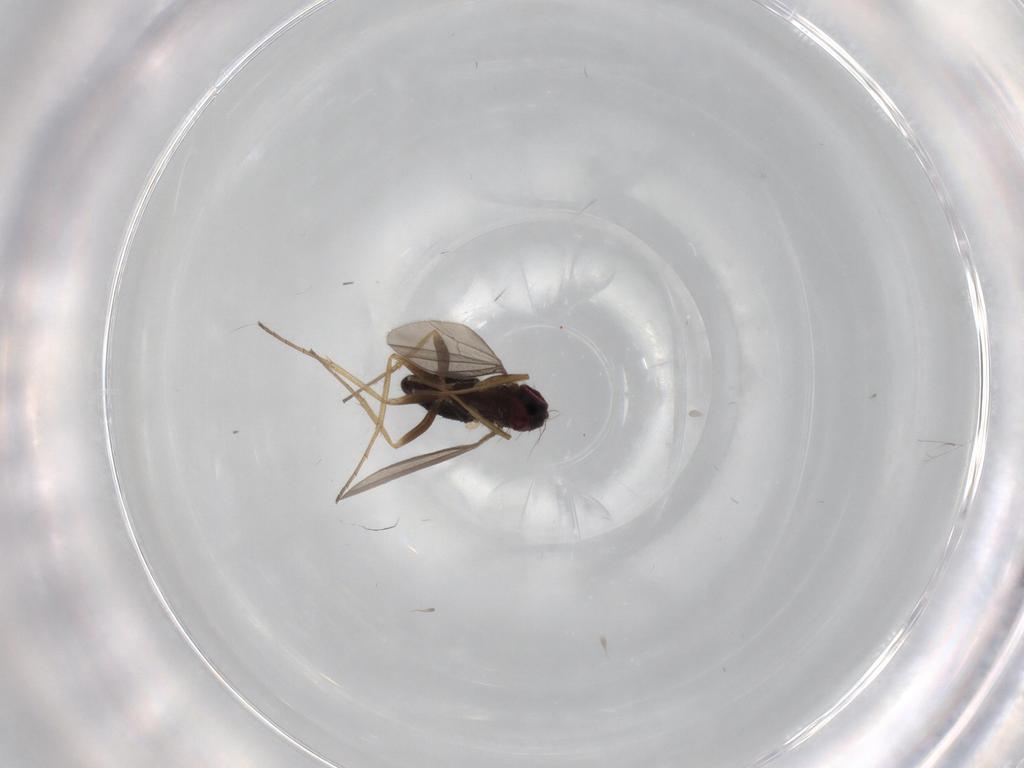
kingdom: Animalia
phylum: Arthropoda
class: Insecta
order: Diptera
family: Dolichopodidae
